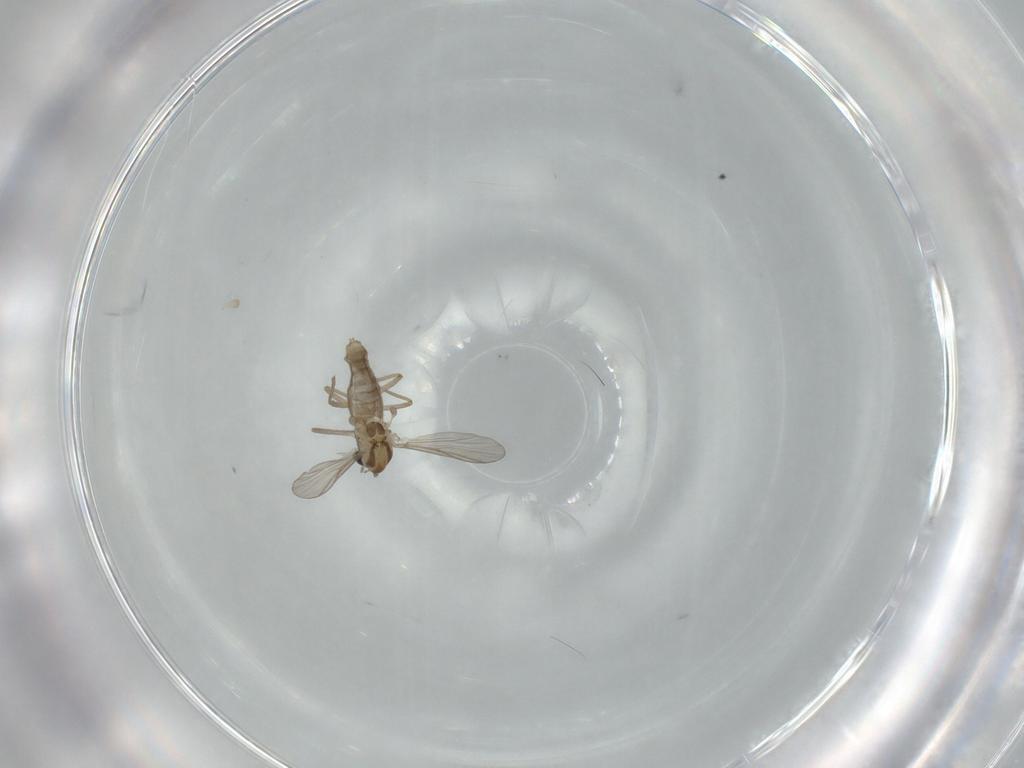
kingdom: Animalia
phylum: Arthropoda
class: Insecta
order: Diptera
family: Chironomidae
